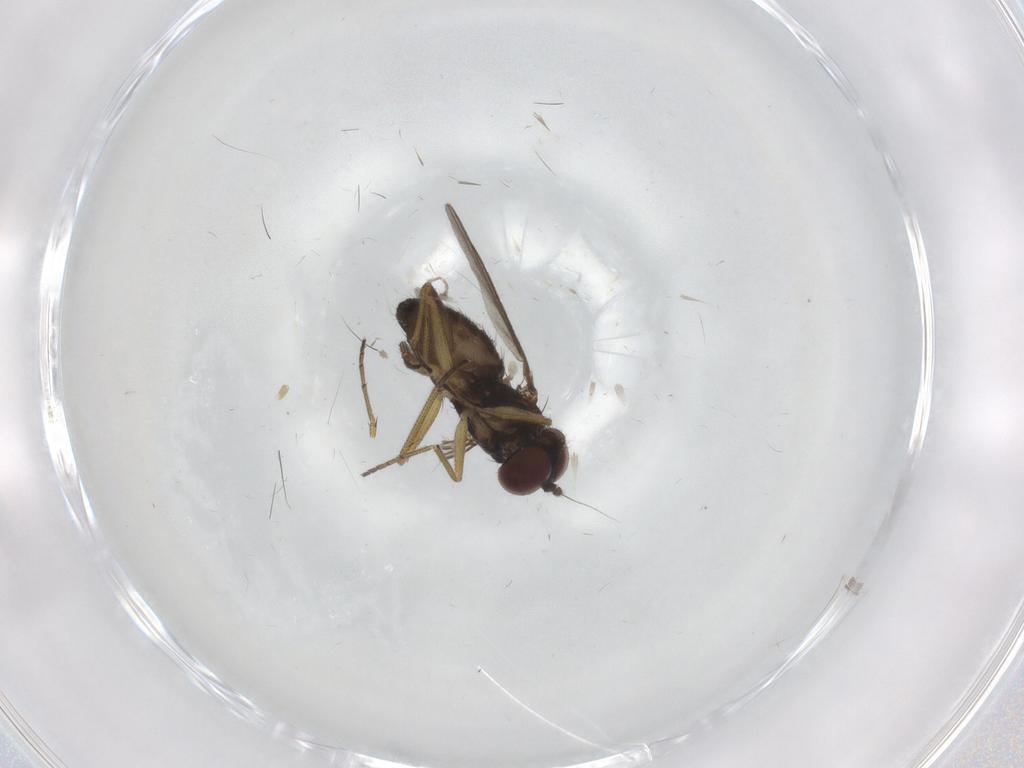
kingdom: Animalia
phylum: Arthropoda
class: Insecta
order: Diptera
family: Dolichopodidae
